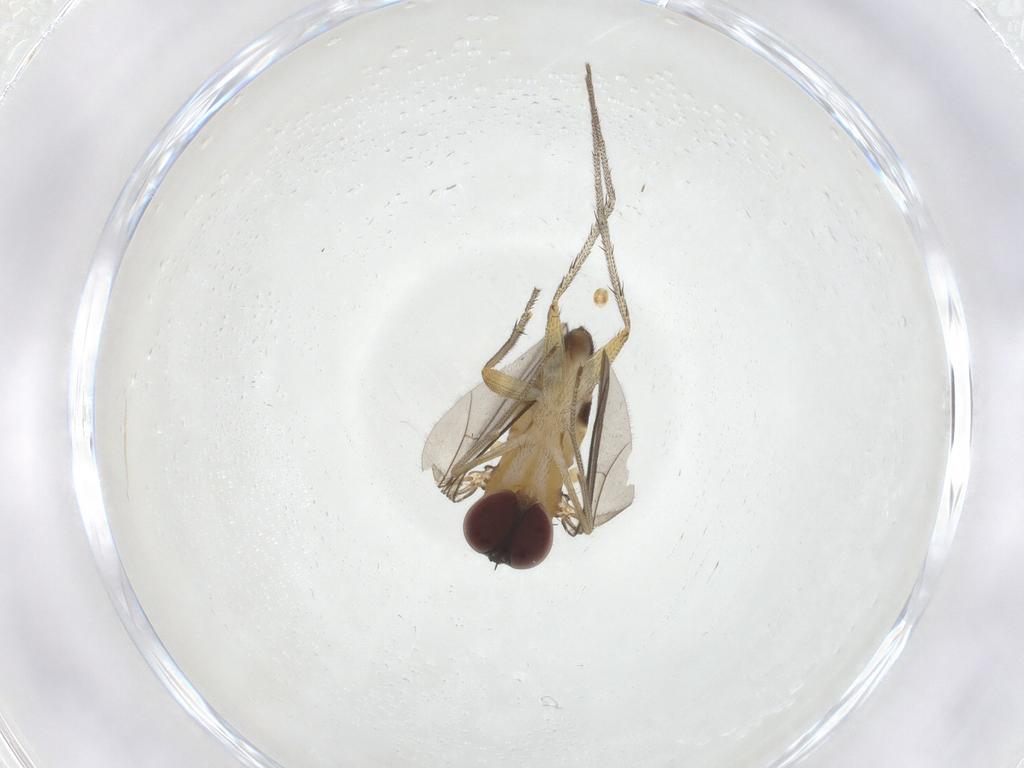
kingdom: Animalia
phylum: Arthropoda
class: Insecta
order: Diptera
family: Dolichopodidae
